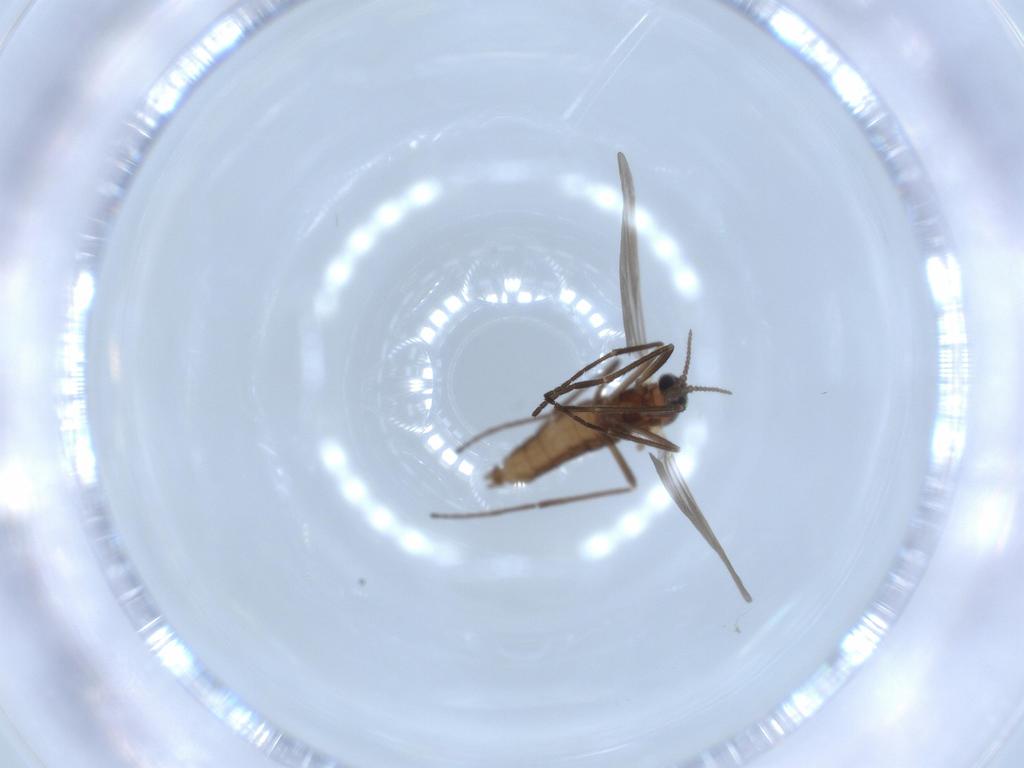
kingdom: Animalia
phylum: Arthropoda
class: Insecta
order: Diptera
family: Cecidomyiidae
